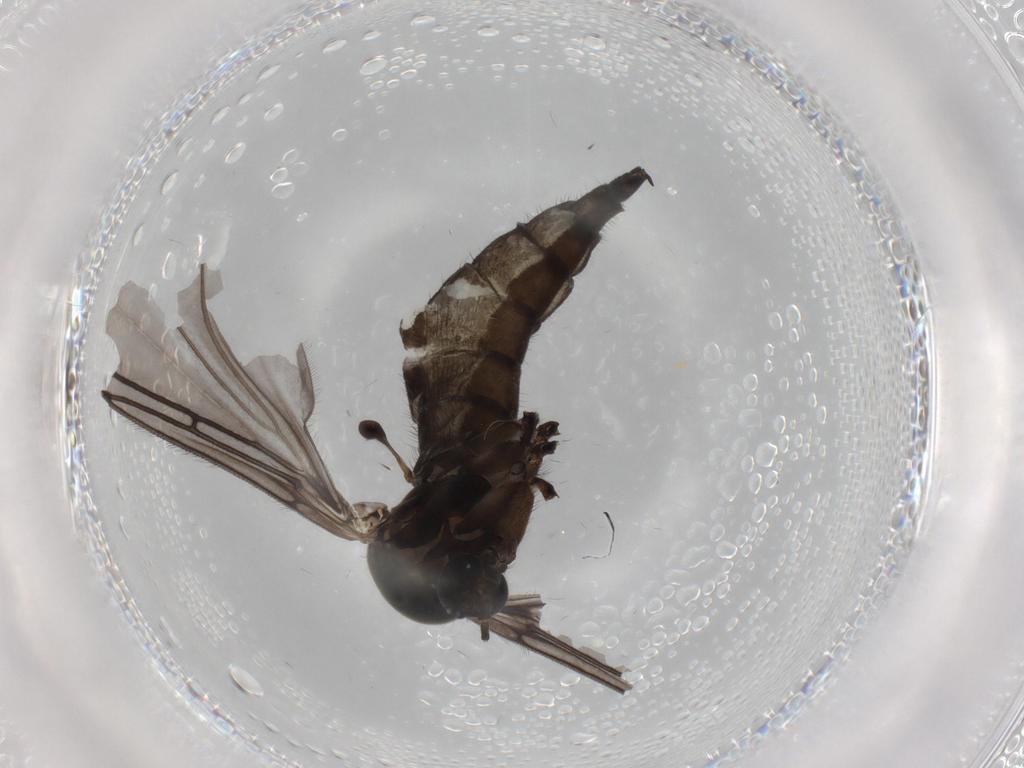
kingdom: Animalia
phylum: Arthropoda
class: Insecta
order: Diptera
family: Sciaridae
